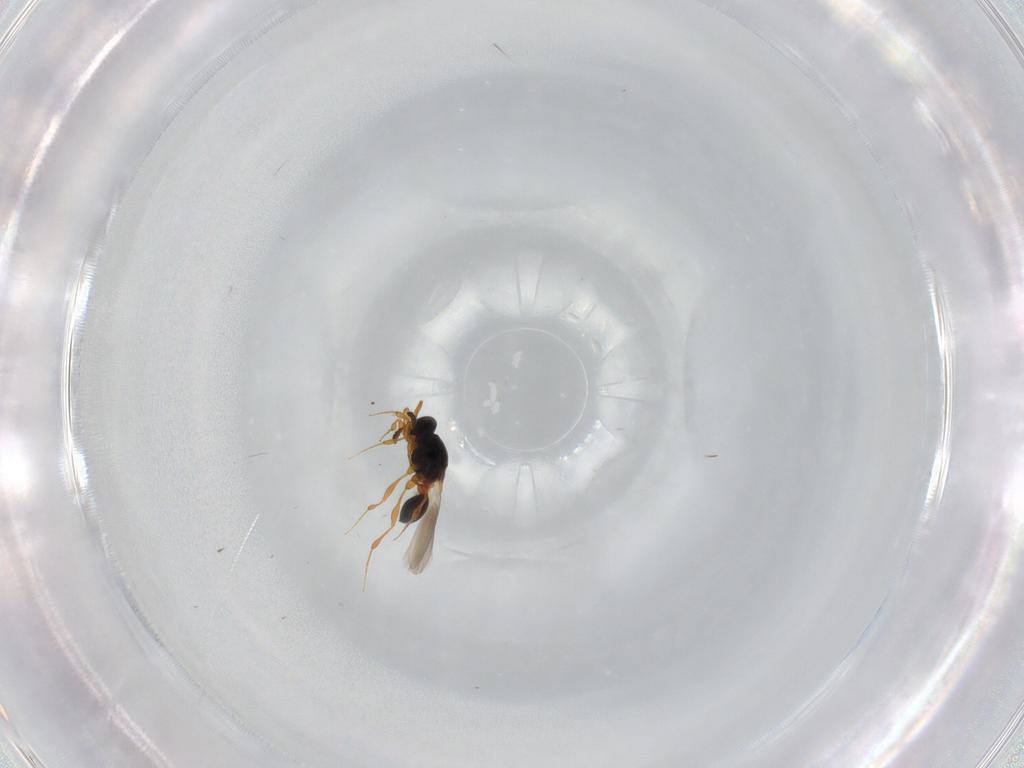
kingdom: Animalia
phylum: Arthropoda
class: Insecta
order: Hymenoptera
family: Platygastridae
